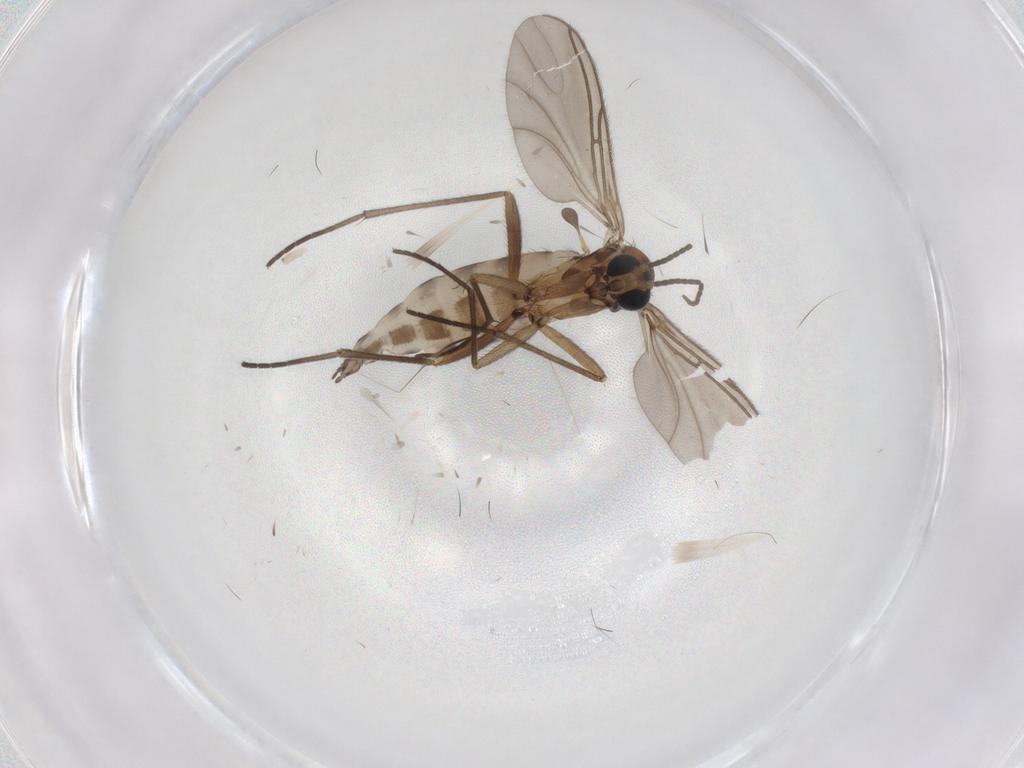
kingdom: Animalia
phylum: Arthropoda
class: Insecta
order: Diptera
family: Sciaridae
